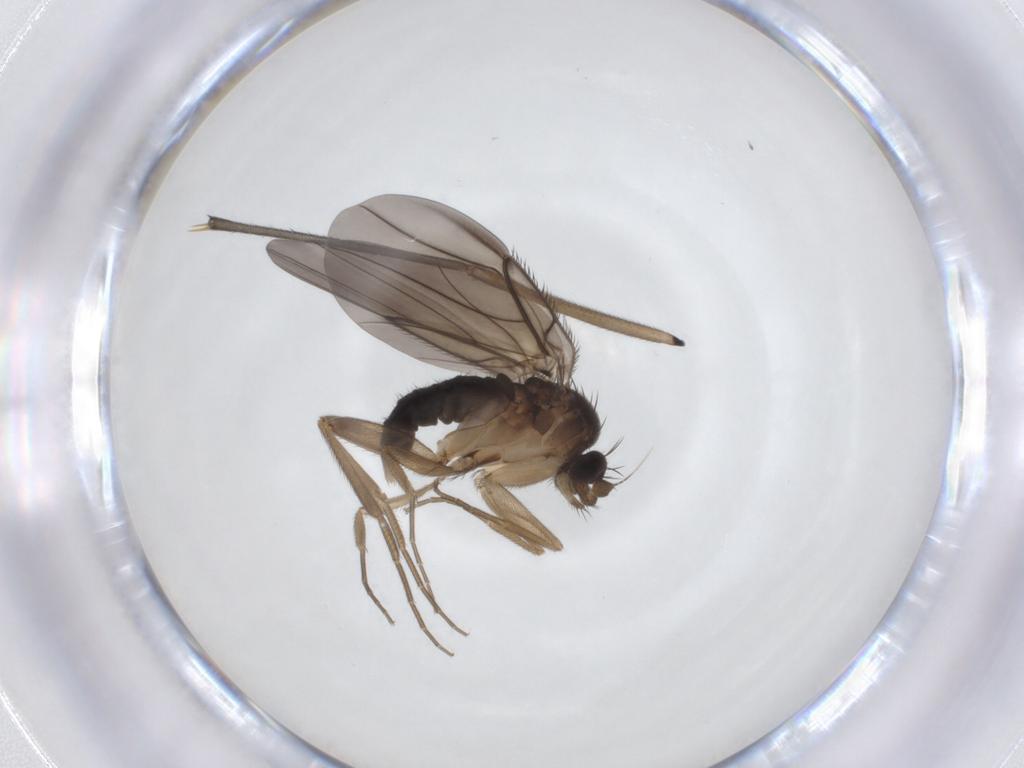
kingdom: Animalia
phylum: Arthropoda
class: Insecta
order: Diptera
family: Phoridae
